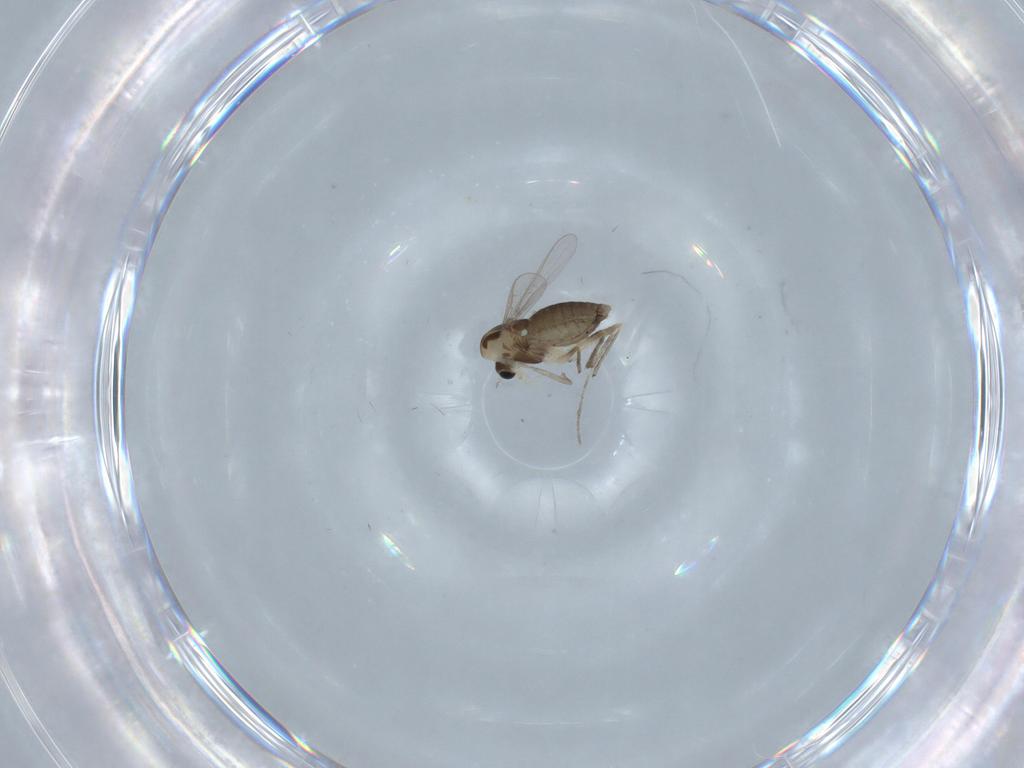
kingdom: Animalia
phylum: Arthropoda
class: Insecta
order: Diptera
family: Chironomidae
